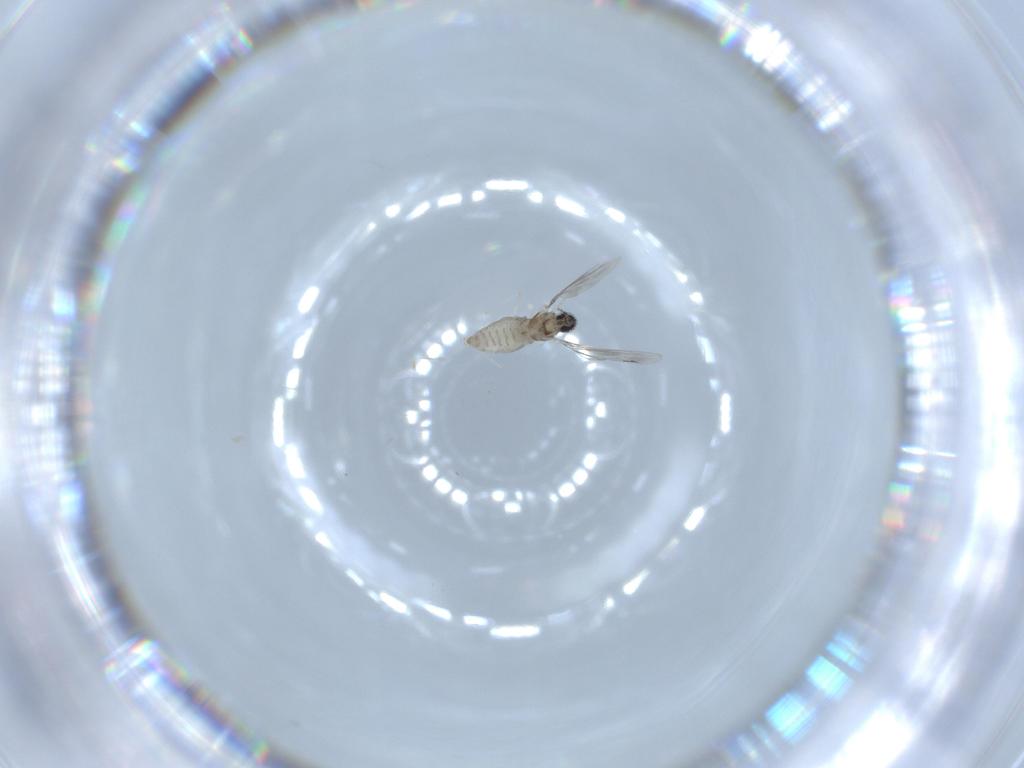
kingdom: Animalia
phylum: Arthropoda
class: Insecta
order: Diptera
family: Cecidomyiidae
